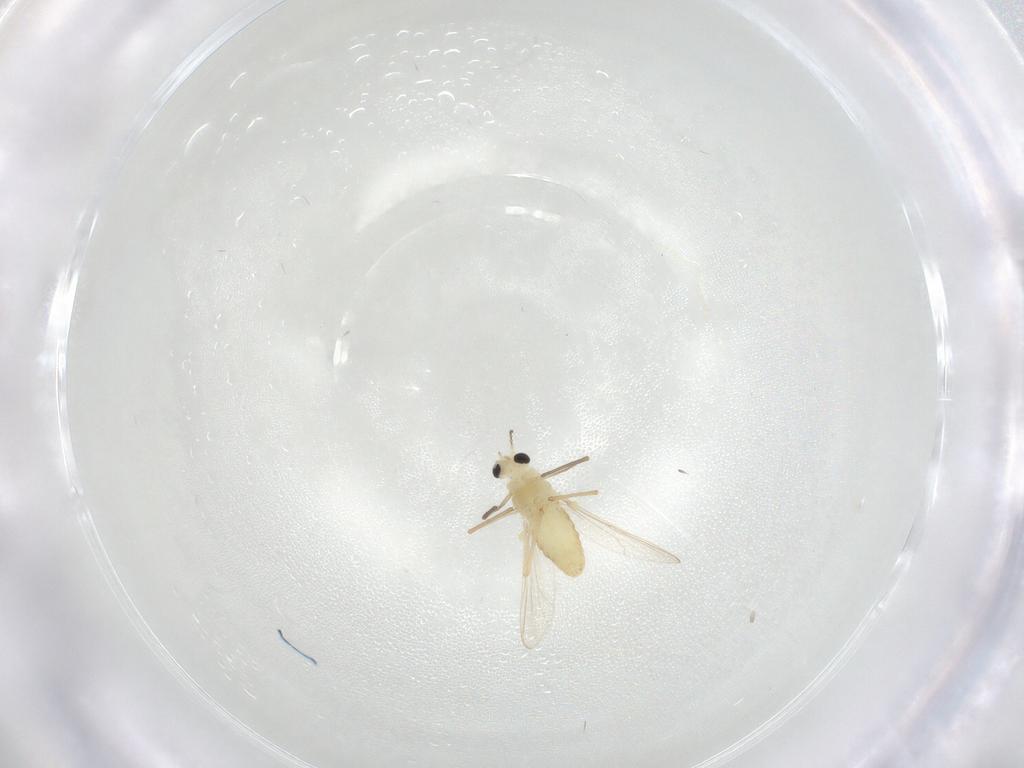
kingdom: Animalia
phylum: Arthropoda
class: Insecta
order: Diptera
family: Chironomidae
